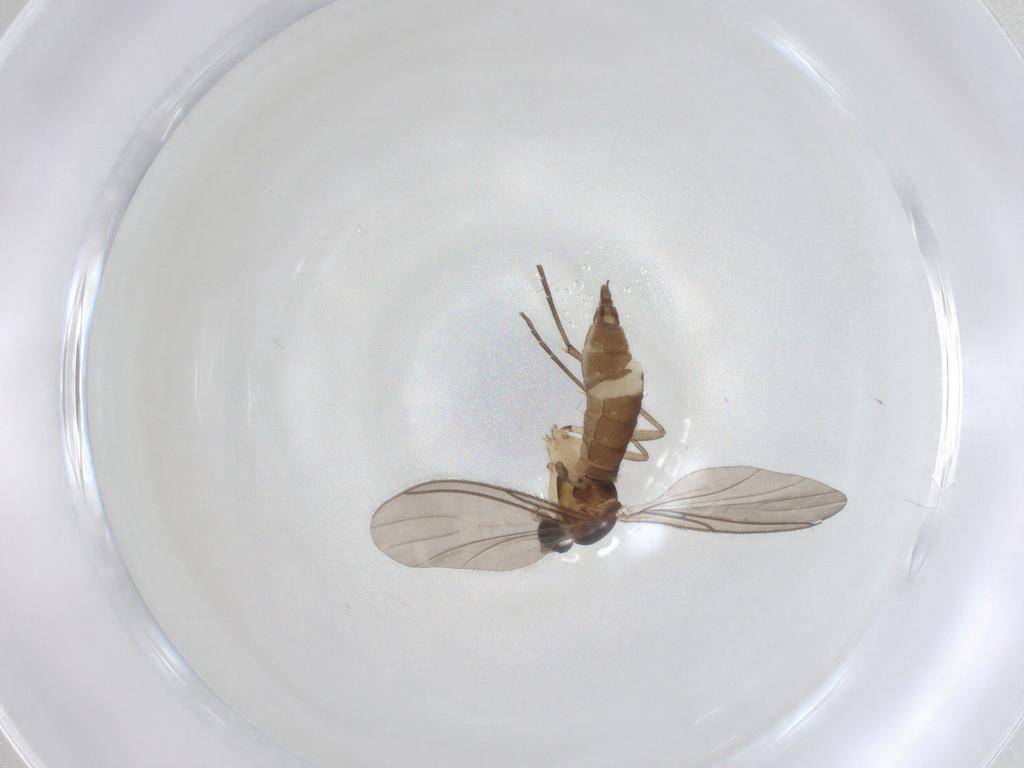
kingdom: Animalia
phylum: Arthropoda
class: Insecta
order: Diptera
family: Sciaridae
